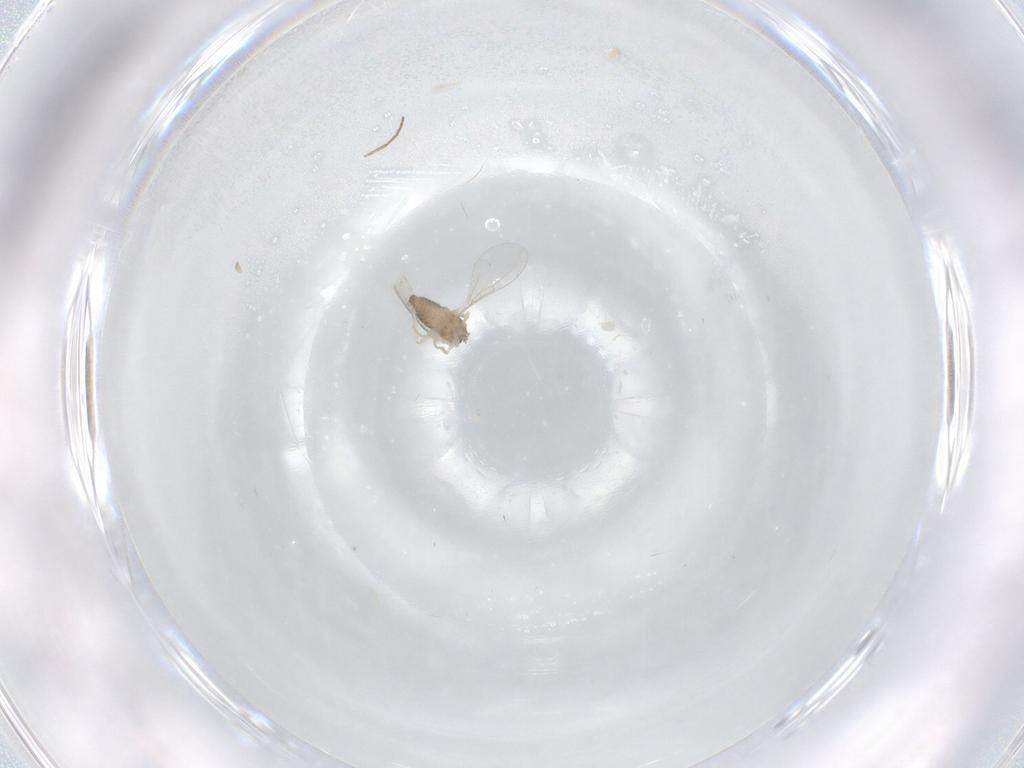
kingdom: Animalia
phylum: Arthropoda
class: Insecta
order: Diptera
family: Cecidomyiidae
